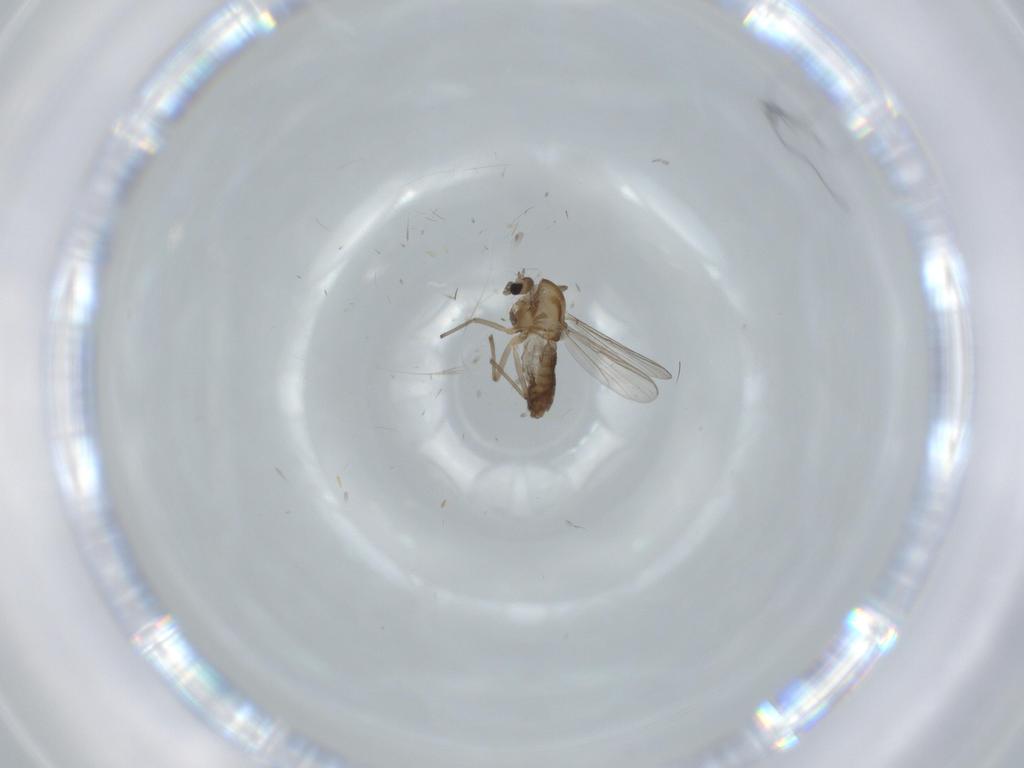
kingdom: Animalia
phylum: Arthropoda
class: Insecta
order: Diptera
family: Chironomidae
